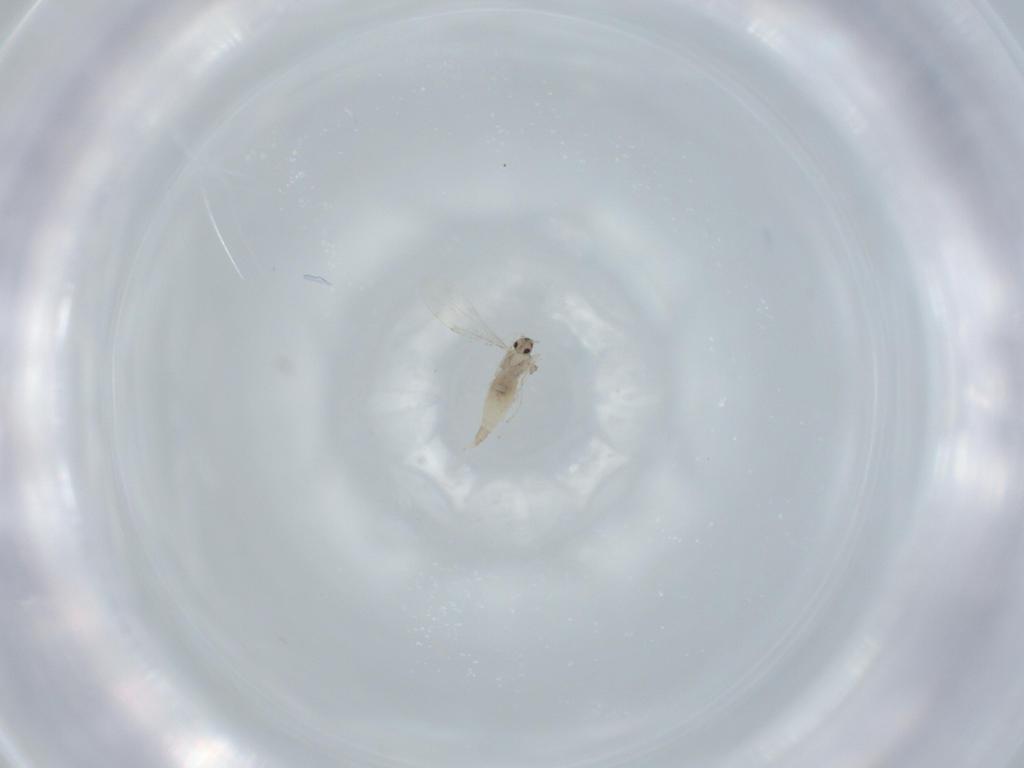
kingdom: Animalia
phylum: Arthropoda
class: Insecta
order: Diptera
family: Cecidomyiidae
